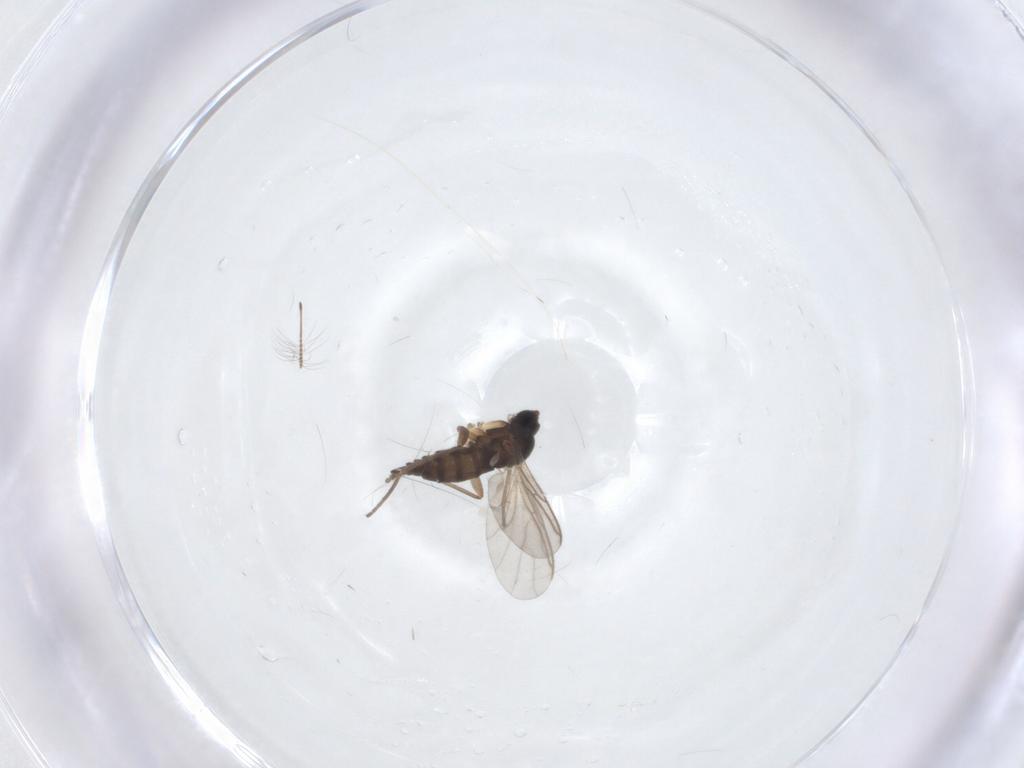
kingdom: Animalia
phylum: Arthropoda
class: Insecta
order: Diptera
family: Sciaridae
